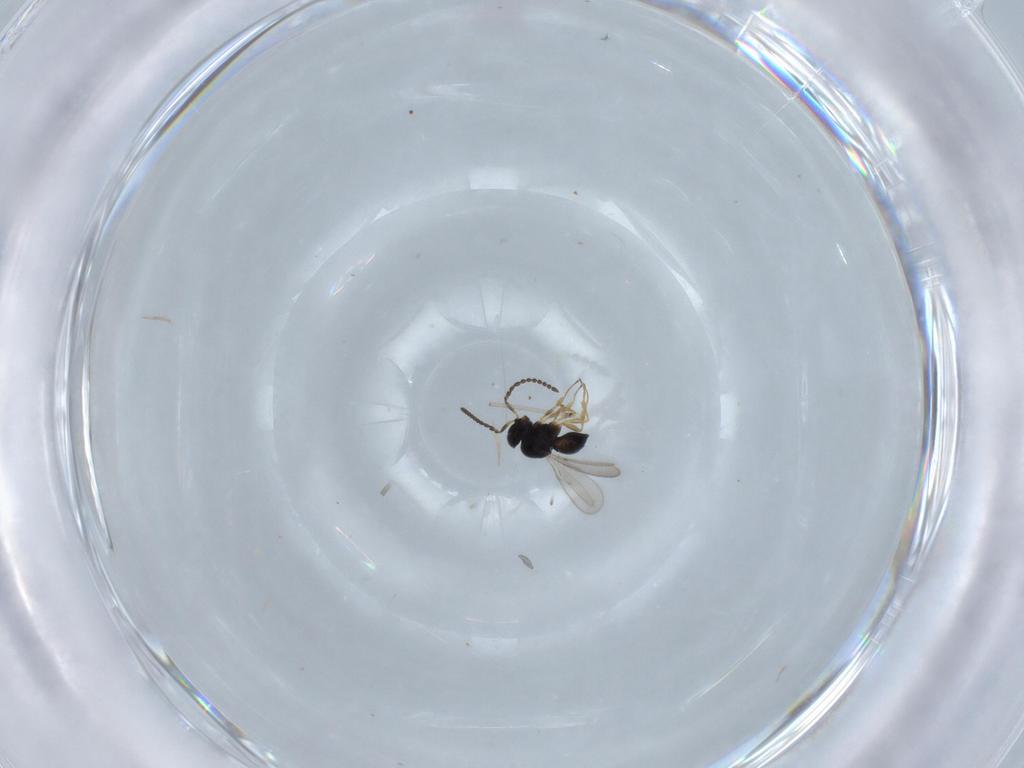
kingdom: Animalia
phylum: Arthropoda
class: Insecta
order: Hymenoptera
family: Scelionidae
